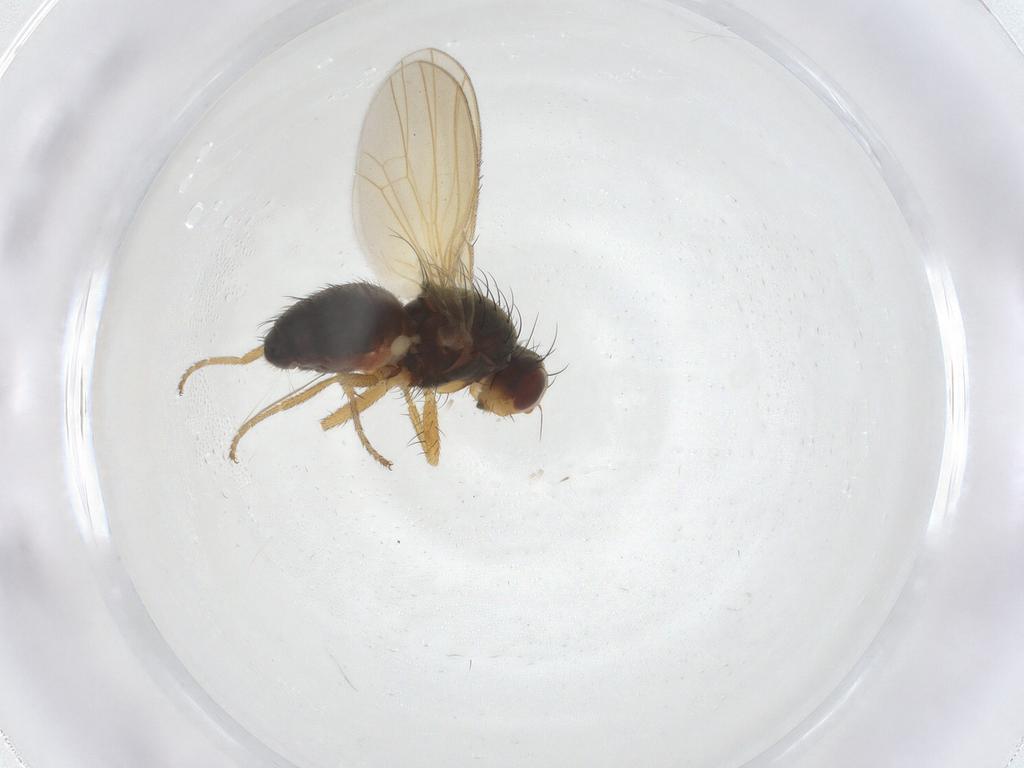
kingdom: Animalia
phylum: Arthropoda
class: Insecta
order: Diptera
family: Heleomyzidae
